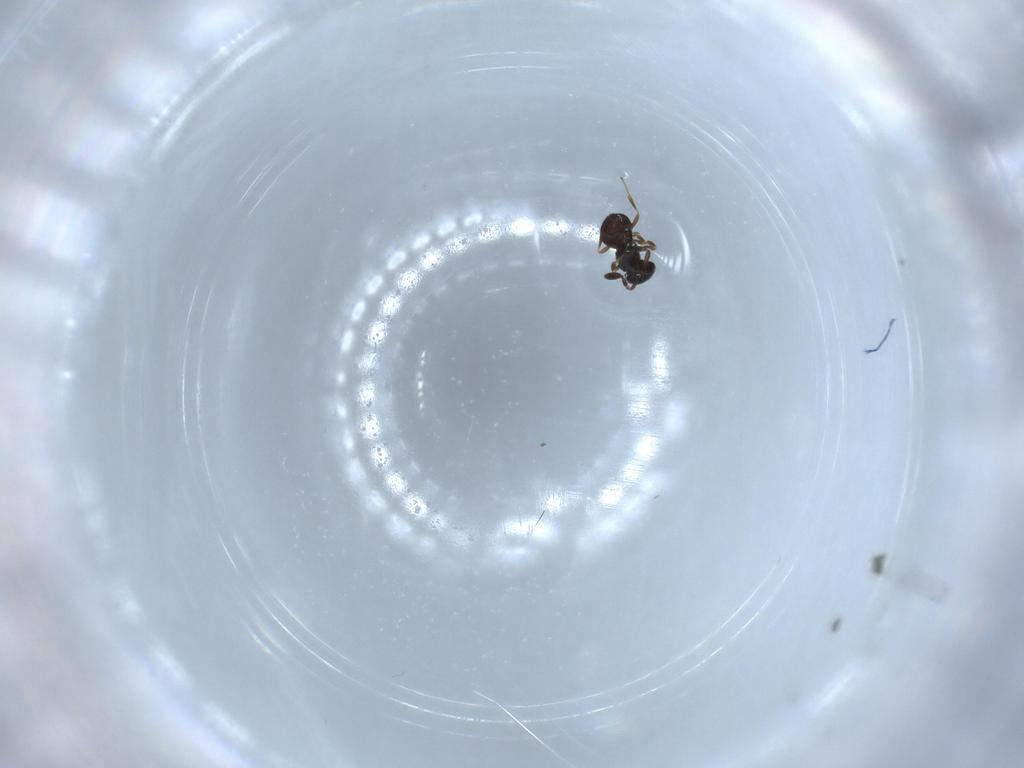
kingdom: Animalia
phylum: Arthropoda
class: Insecta
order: Hymenoptera
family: Scelionidae
